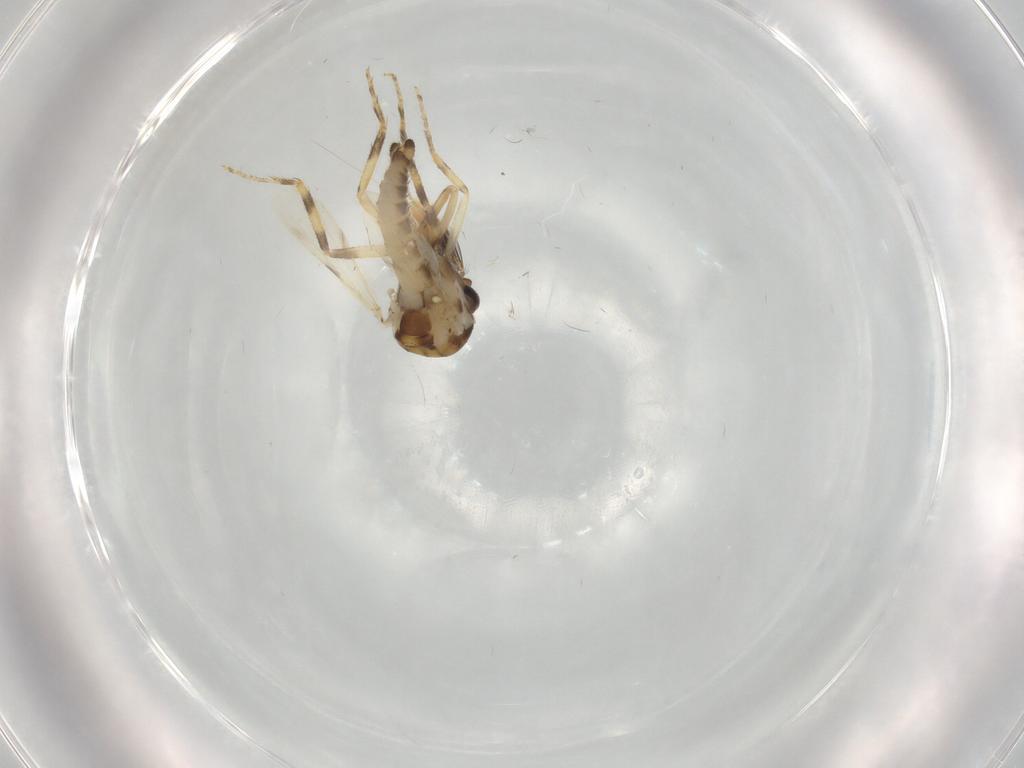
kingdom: Animalia
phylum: Arthropoda
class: Insecta
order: Diptera
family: Ceratopogonidae
